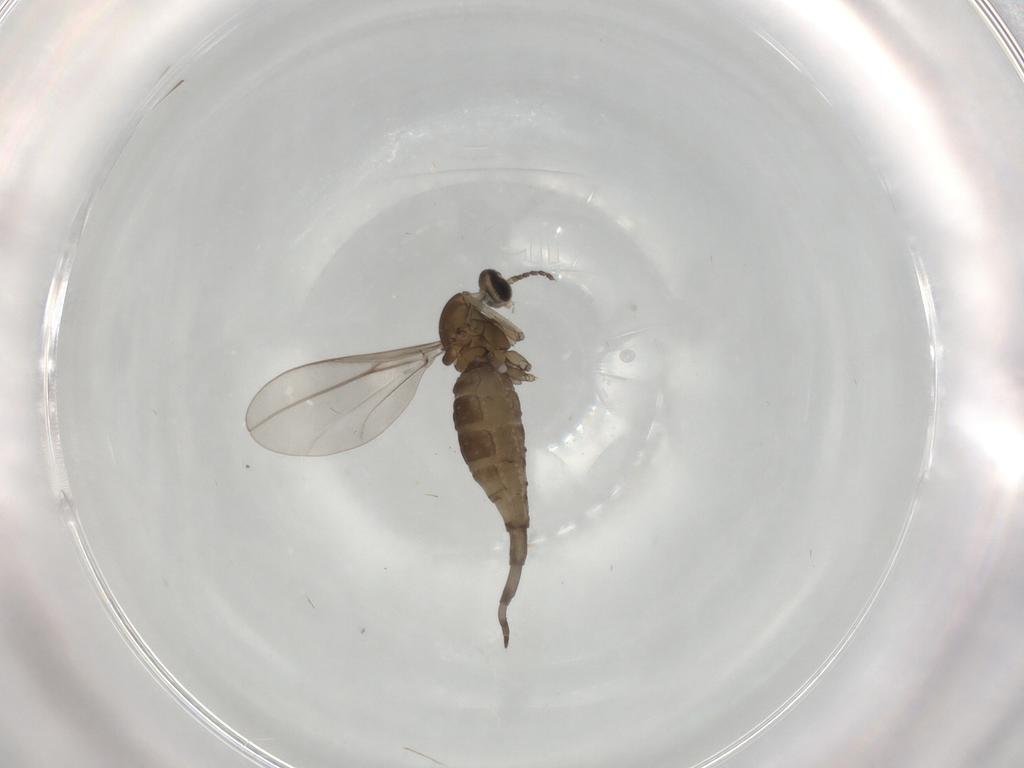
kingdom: Animalia
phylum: Arthropoda
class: Insecta
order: Diptera
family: Cecidomyiidae
